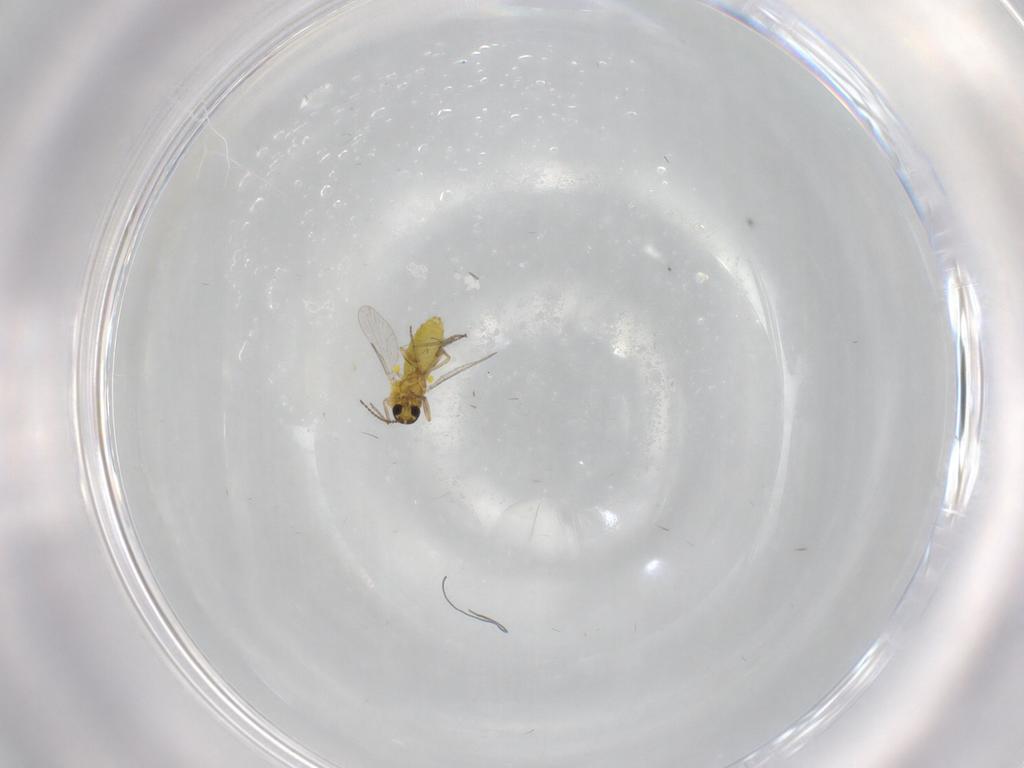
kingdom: Animalia
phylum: Arthropoda
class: Insecta
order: Diptera
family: Ceratopogonidae
